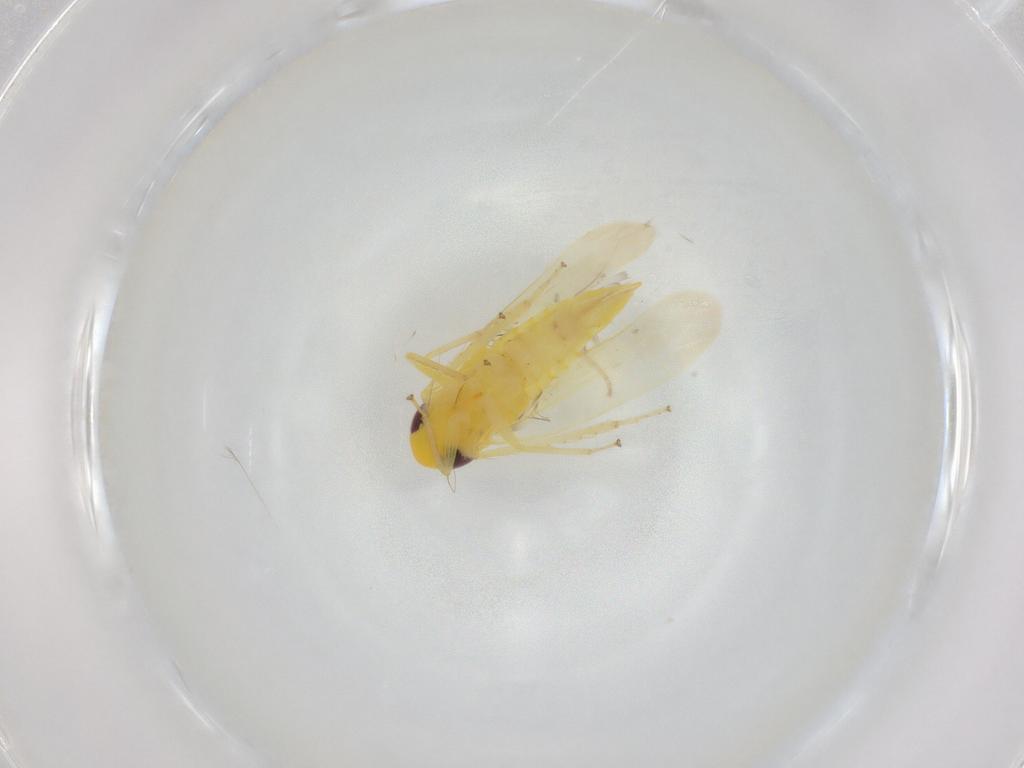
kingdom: Animalia
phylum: Arthropoda
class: Insecta
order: Hemiptera
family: Cicadellidae
